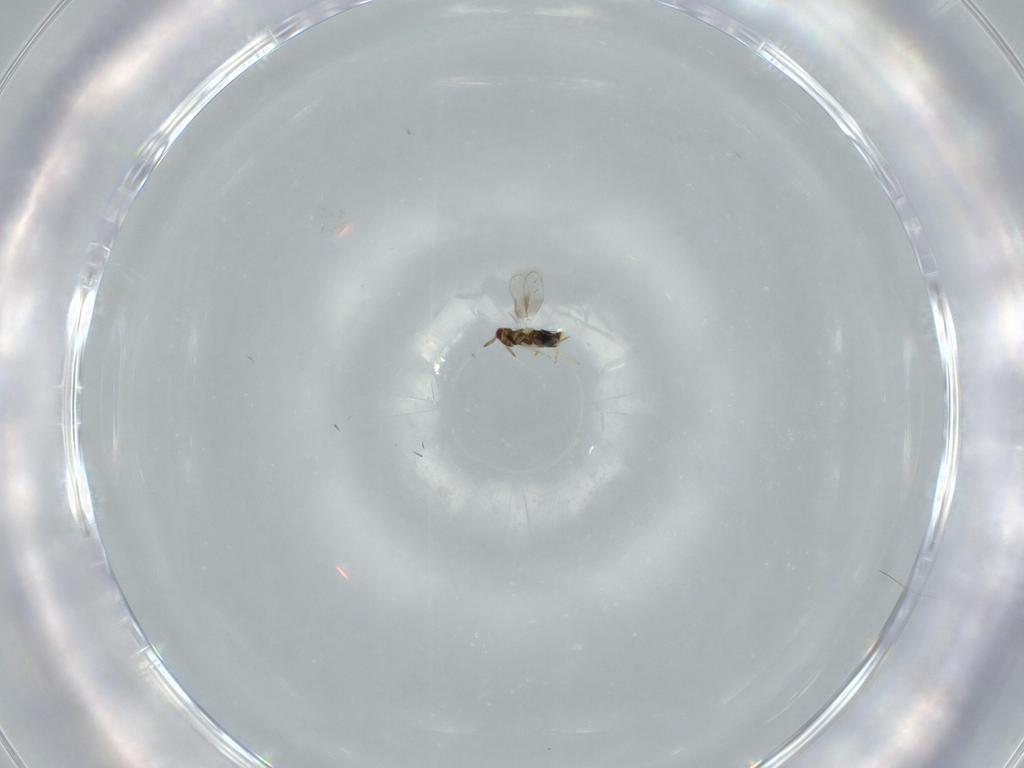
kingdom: Animalia
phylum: Arthropoda
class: Insecta
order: Hymenoptera
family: Aphelinidae
